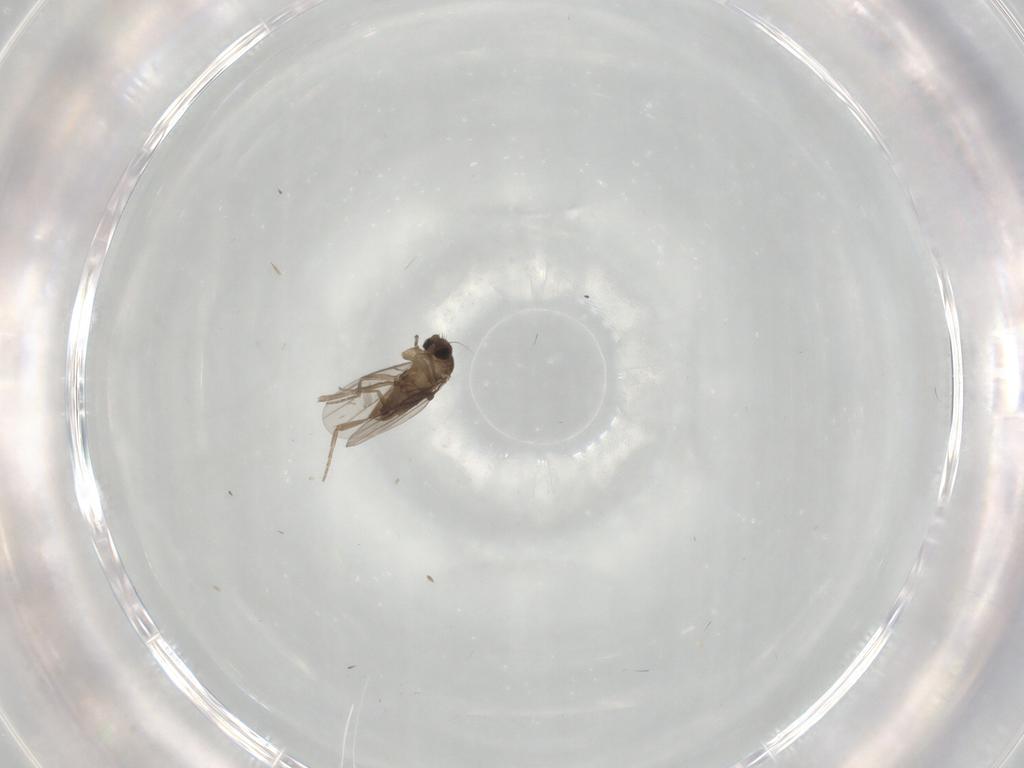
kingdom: Animalia
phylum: Arthropoda
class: Insecta
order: Diptera
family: Phoridae
